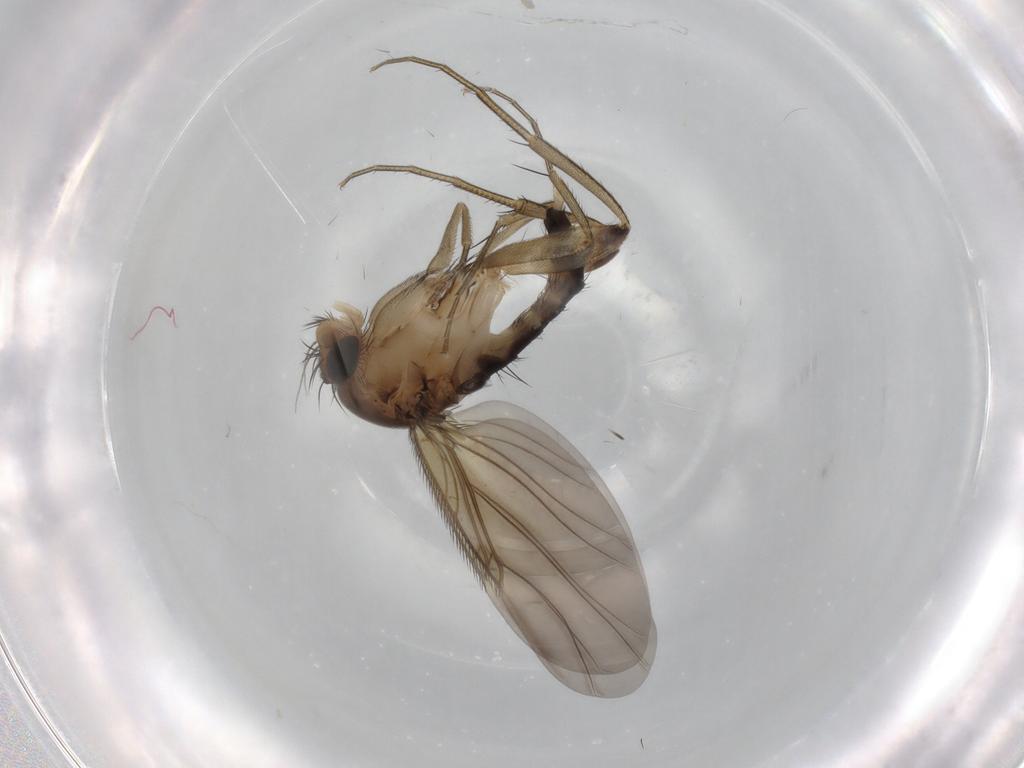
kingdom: Animalia
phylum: Arthropoda
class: Insecta
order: Diptera
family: Phoridae
